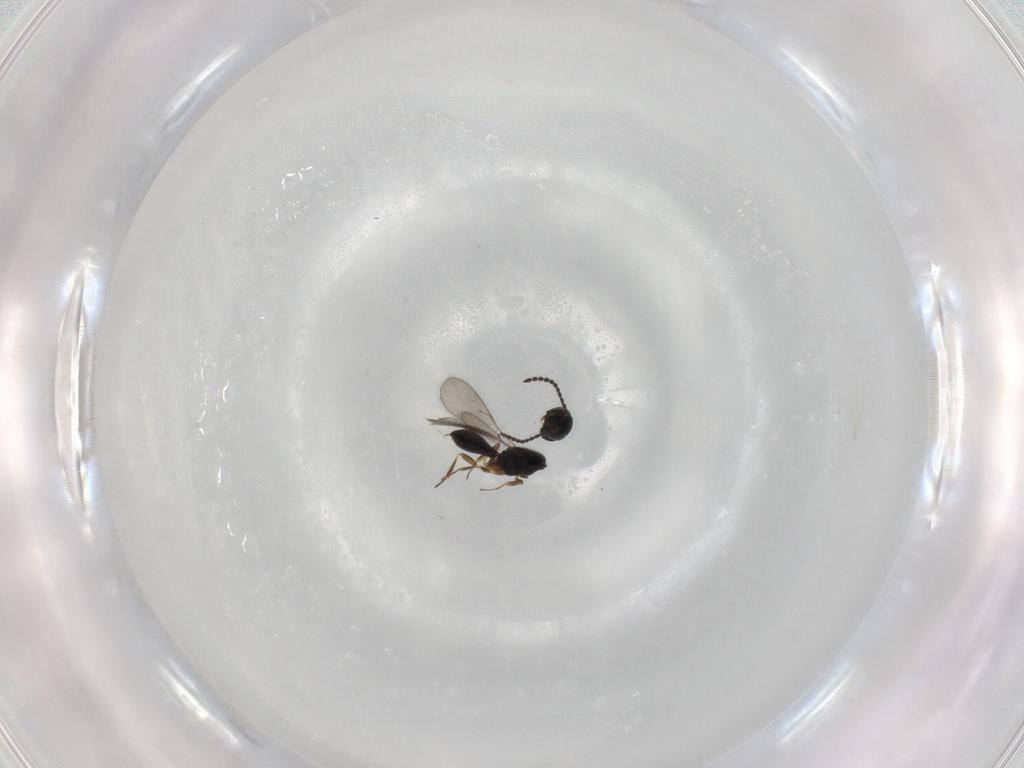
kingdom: Animalia
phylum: Arthropoda
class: Insecta
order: Hymenoptera
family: Scelionidae
